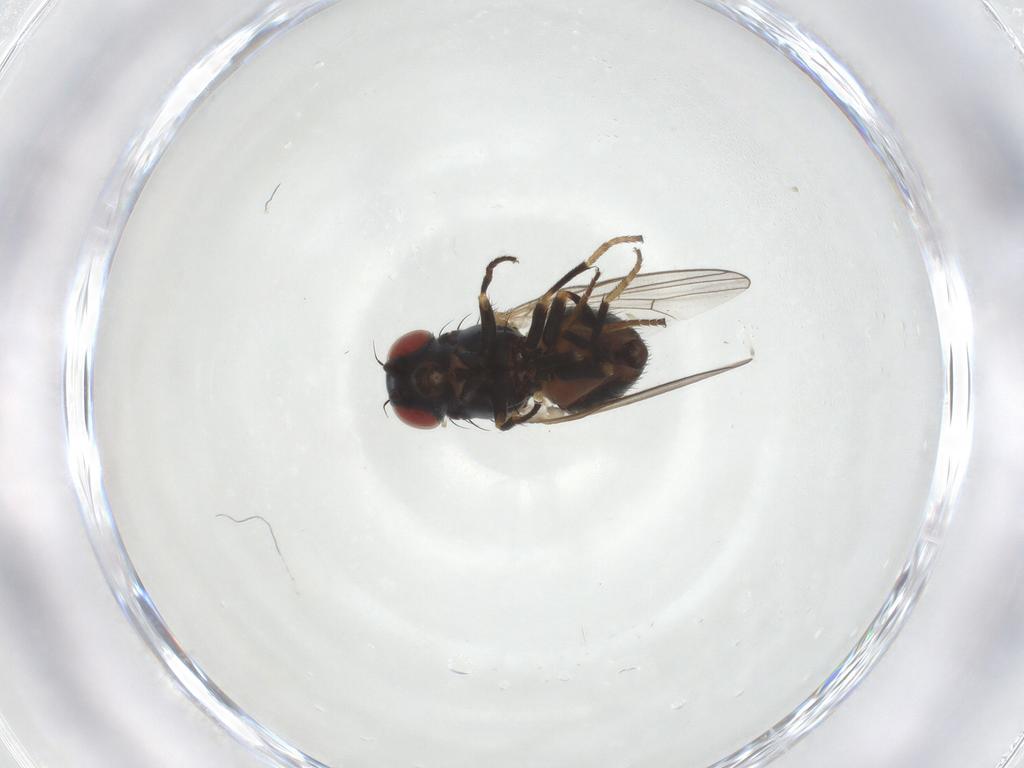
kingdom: Animalia
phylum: Arthropoda
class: Insecta
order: Diptera
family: Chamaemyiidae
